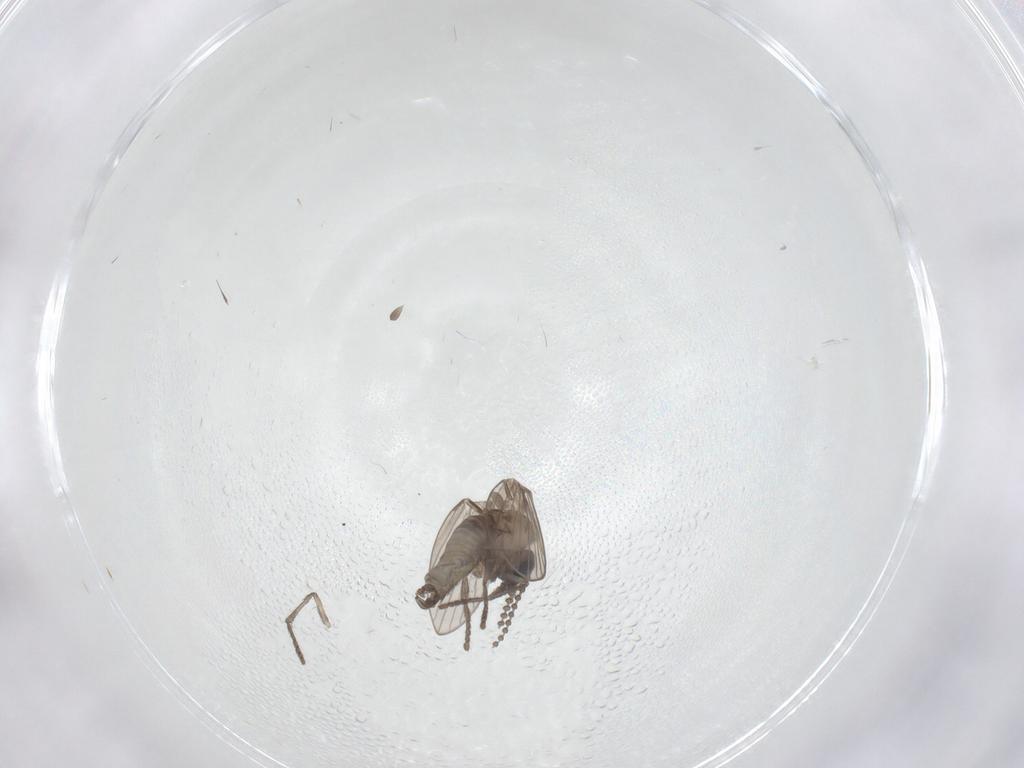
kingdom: Animalia
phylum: Arthropoda
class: Insecta
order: Diptera
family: Psychodidae
